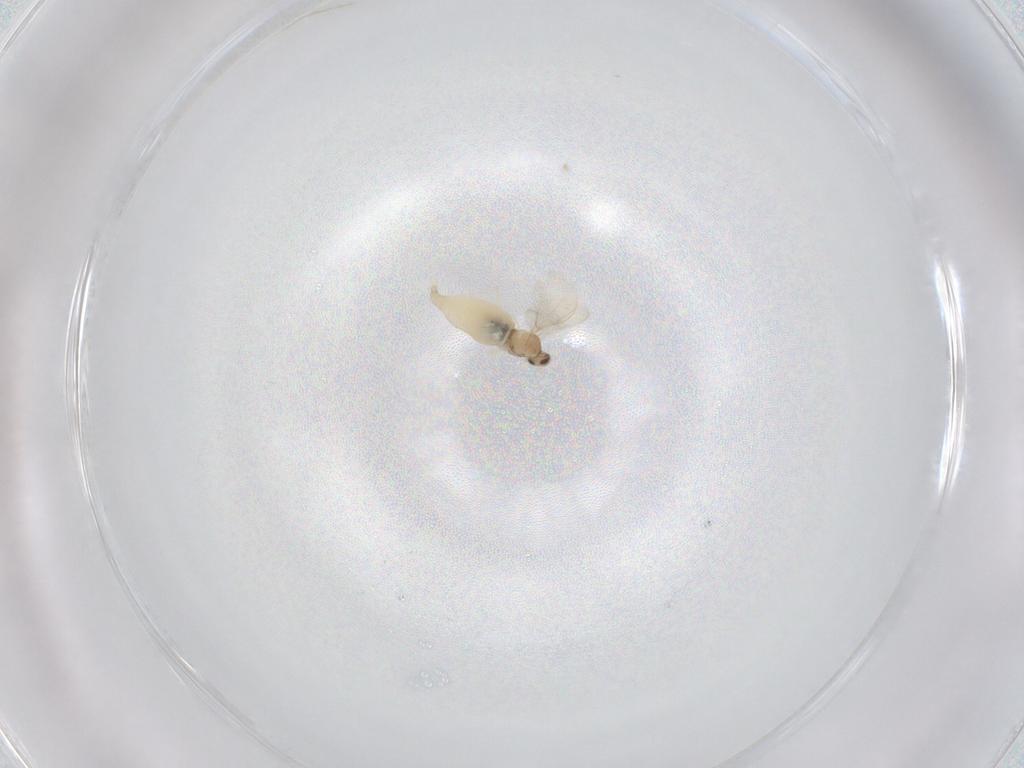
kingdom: Animalia
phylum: Arthropoda
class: Insecta
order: Diptera
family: Cecidomyiidae
